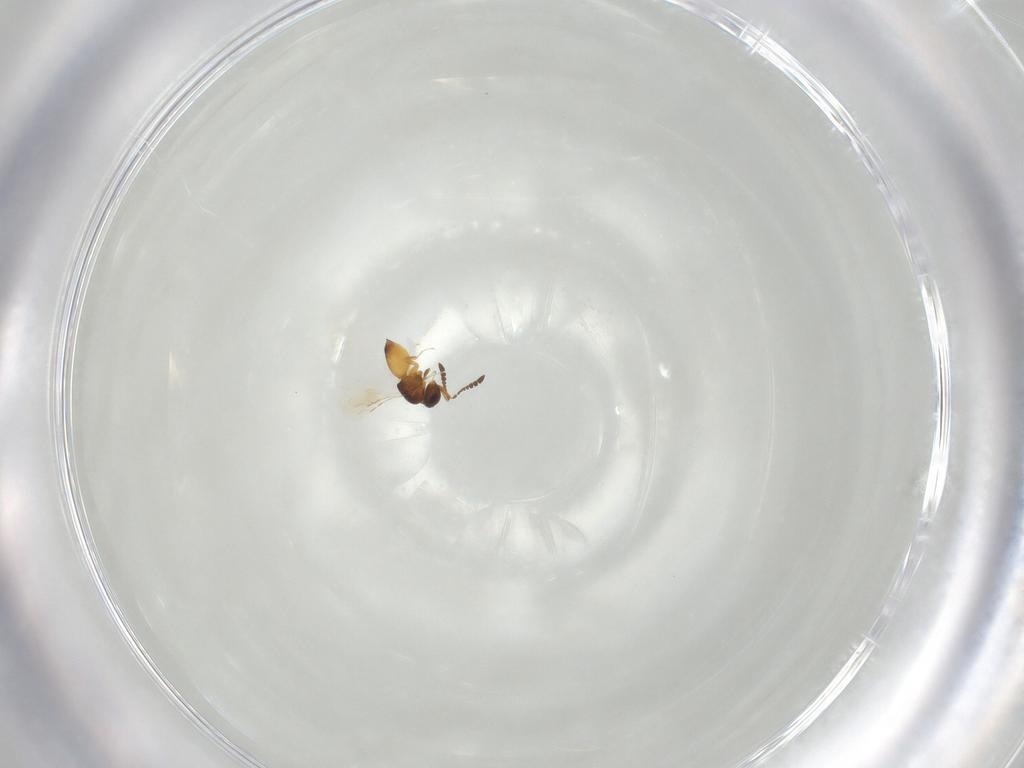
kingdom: Animalia
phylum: Arthropoda
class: Insecta
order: Hymenoptera
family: Ceraphronidae
